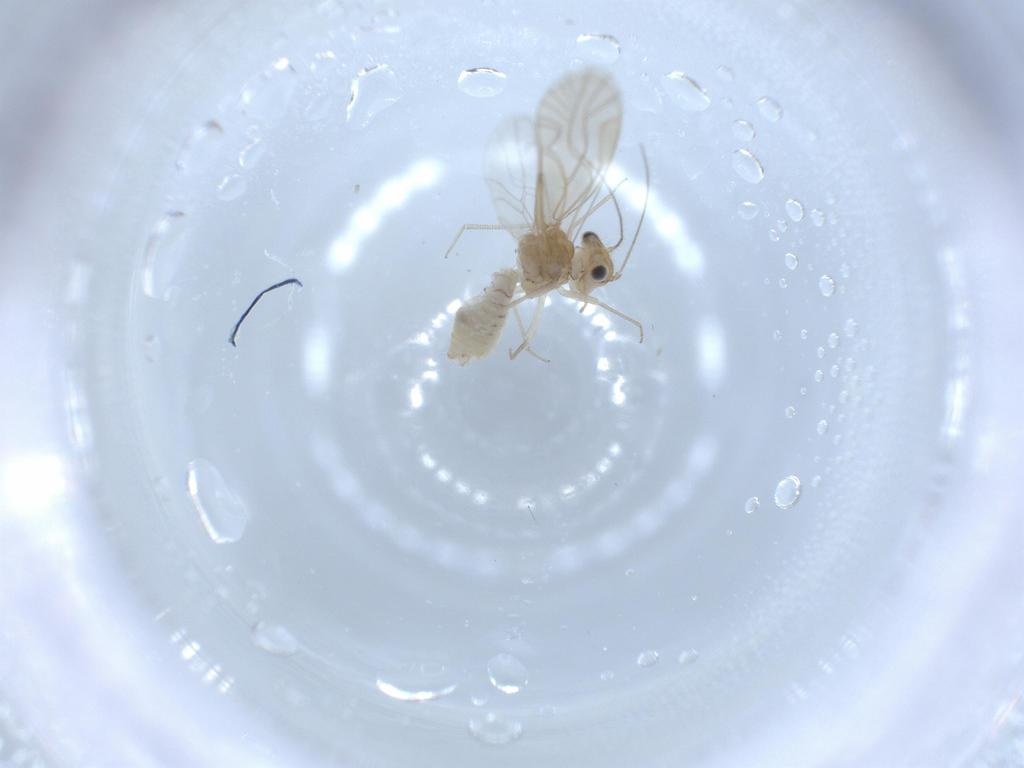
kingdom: Animalia
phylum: Arthropoda
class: Insecta
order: Psocodea
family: Lachesillidae
